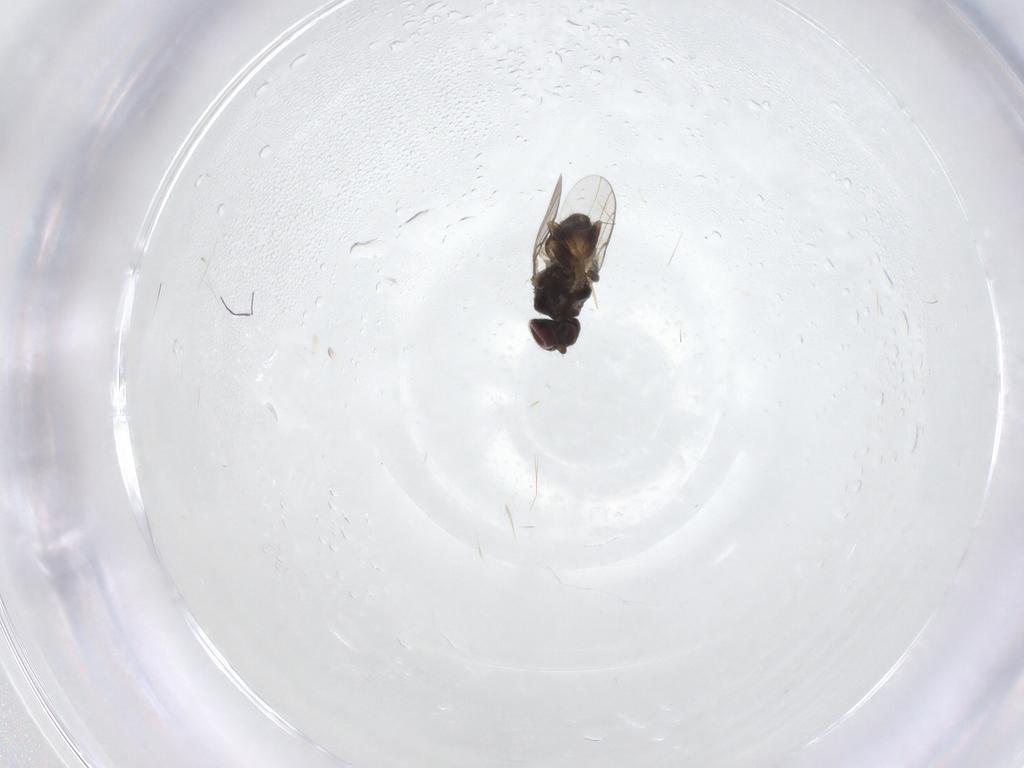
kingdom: Animalia
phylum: Arthropoda
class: Insecta
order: Diptera
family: Chloropidae
